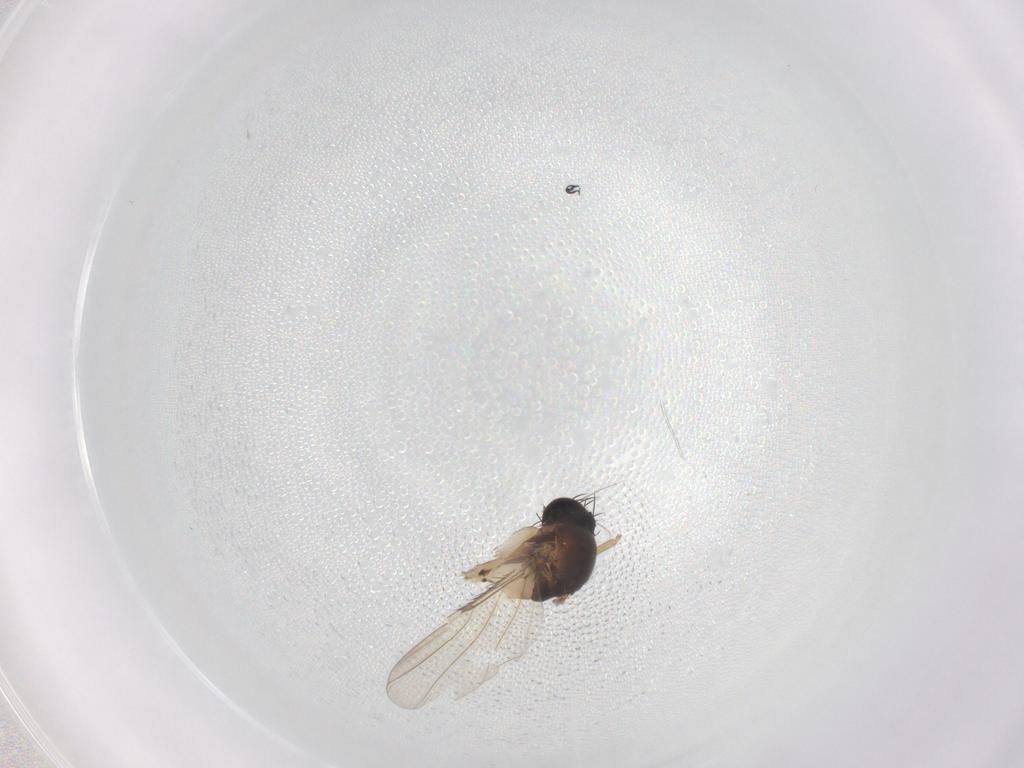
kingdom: Animalia
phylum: Arthropoda
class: Insecta
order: Diptera
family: Phoridae
